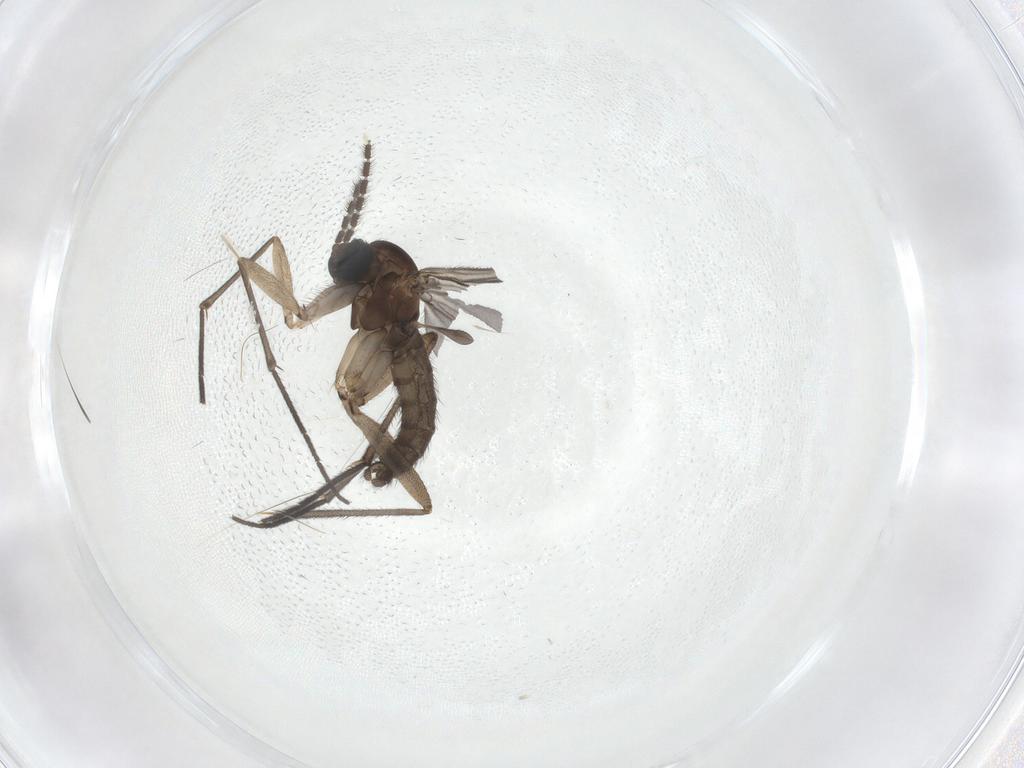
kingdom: Animalia
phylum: Arthropoda
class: Insecta
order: Diptera
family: Sciaridae
